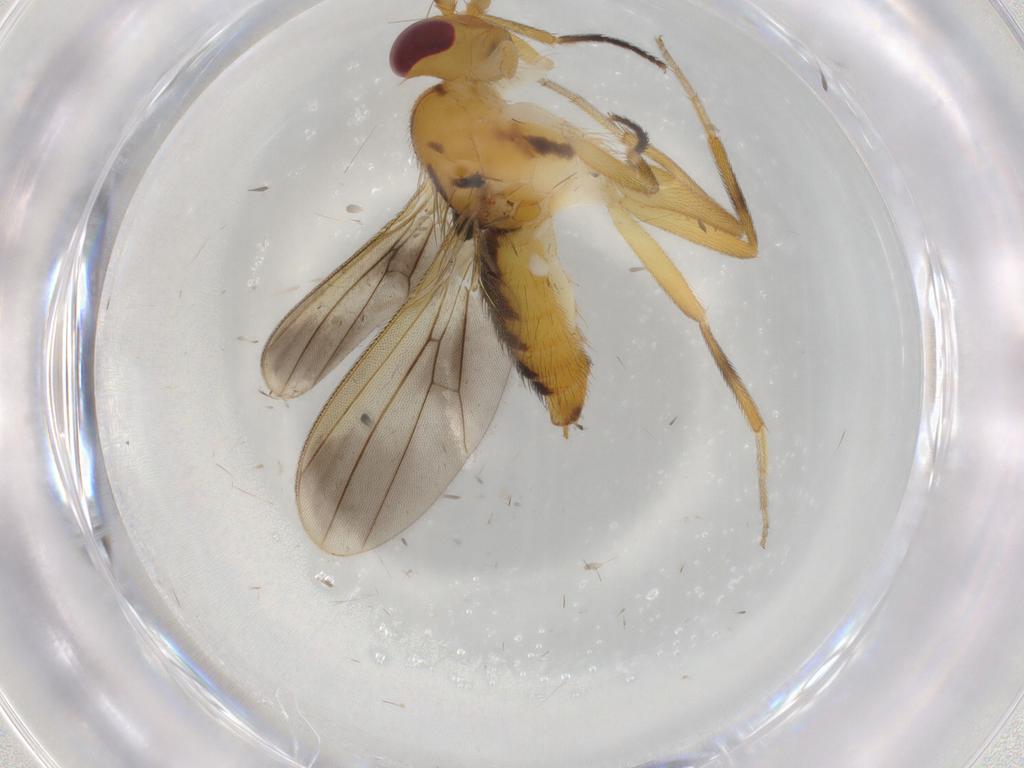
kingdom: Animalia
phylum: Arthropoda
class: Insecta
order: Diptera
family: Clusiidae
